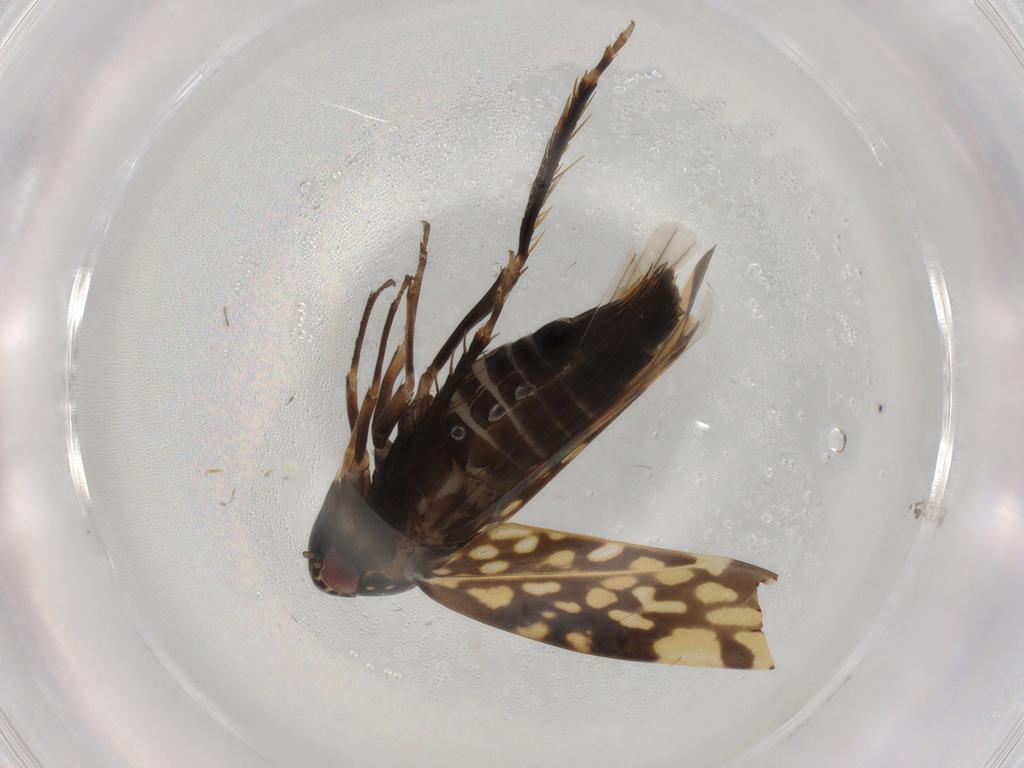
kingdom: Animalia
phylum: Arthropoda
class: Insecta
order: Hemiptera
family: Cicadellidae
